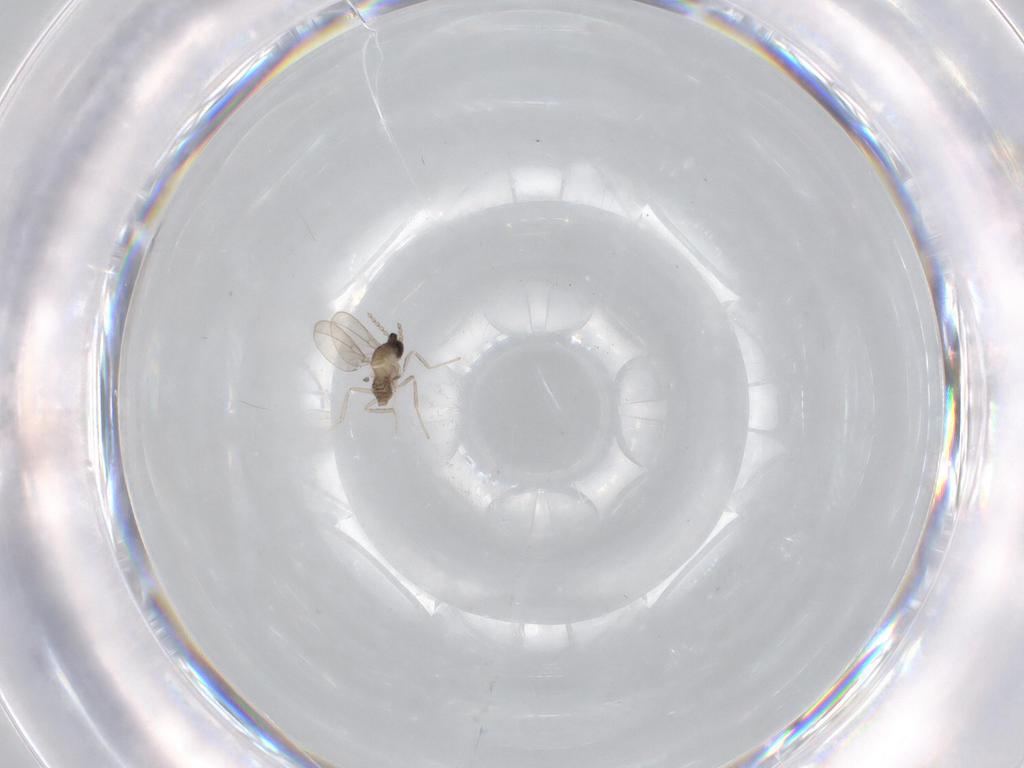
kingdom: Animalia
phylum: Arthropoda
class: Insecta
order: Diptera
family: Cecidomyiidae
